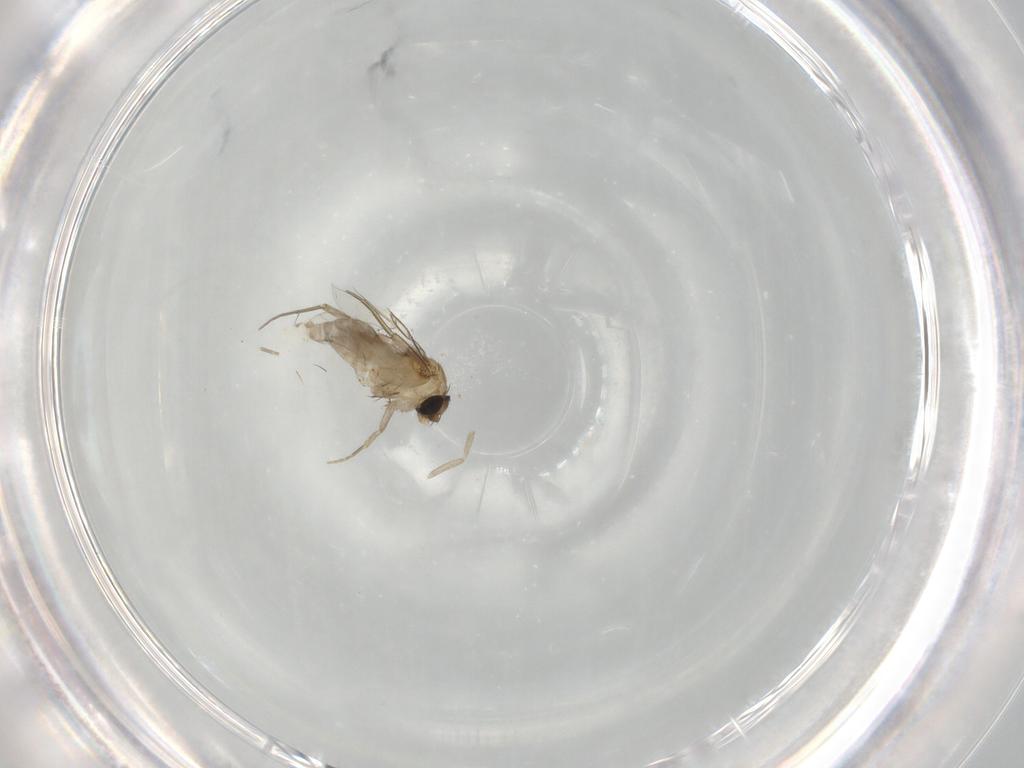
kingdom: Animalia
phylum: Arthropoda
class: Insecta
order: Diptera
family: Phoridae
